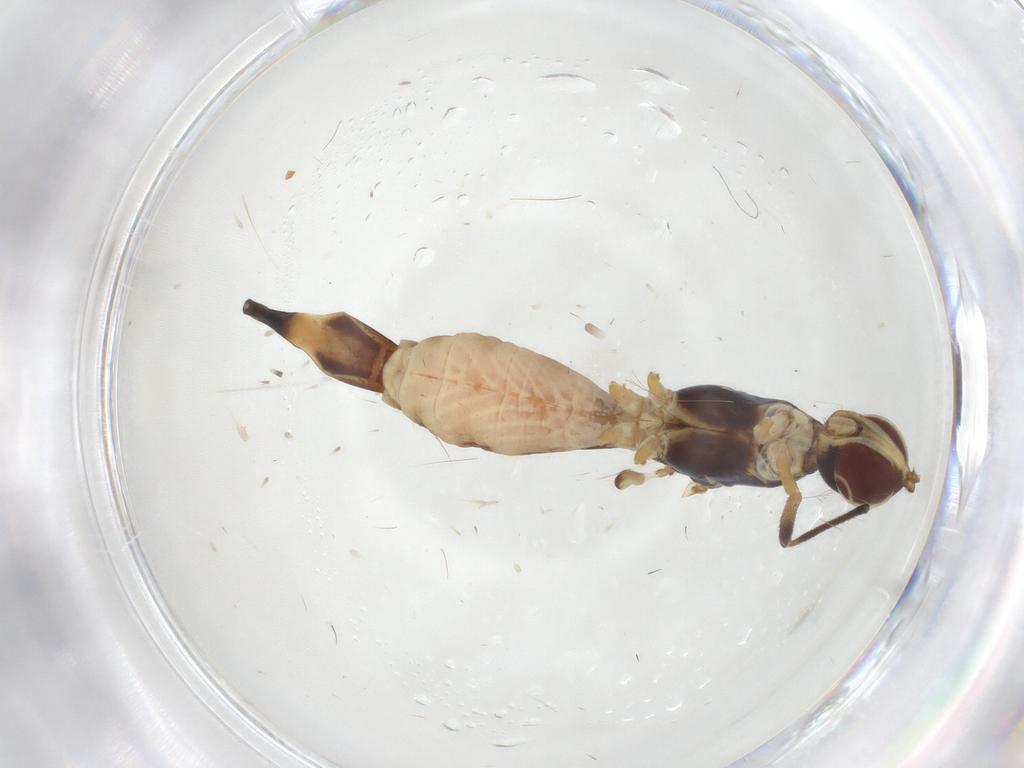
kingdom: Animalia
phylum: Arthropoda
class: Insecta
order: Diptera
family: Micropezidae
